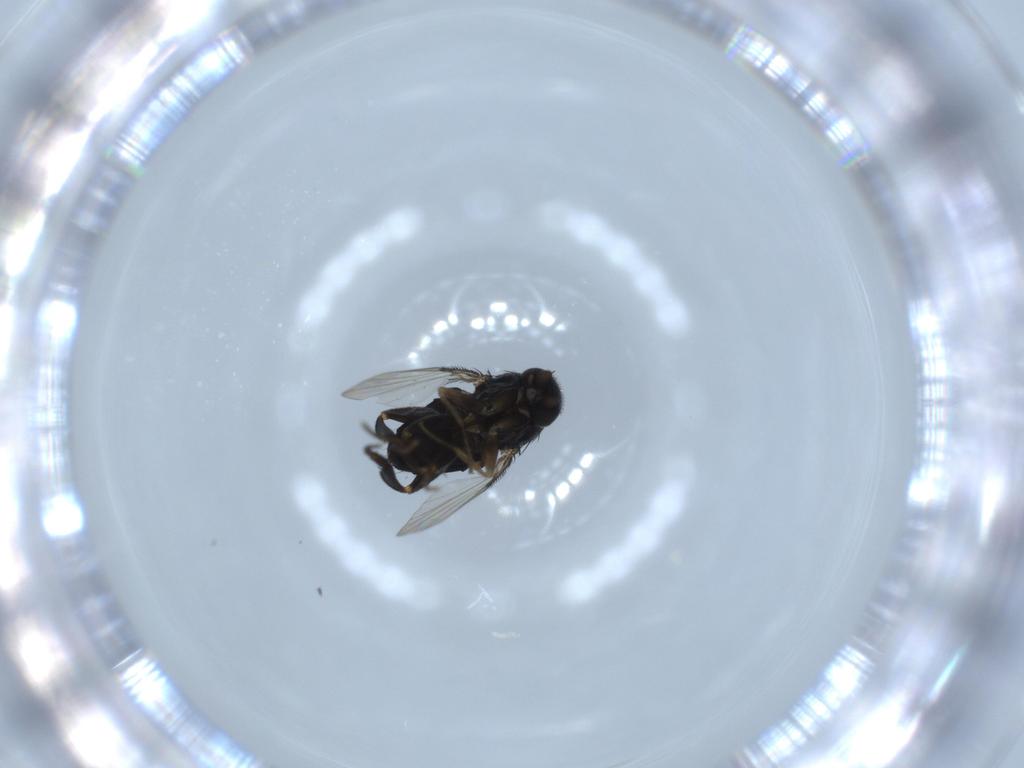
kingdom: Animalia
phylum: Arthropoda
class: Insecta
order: Diptera
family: Phoridae
